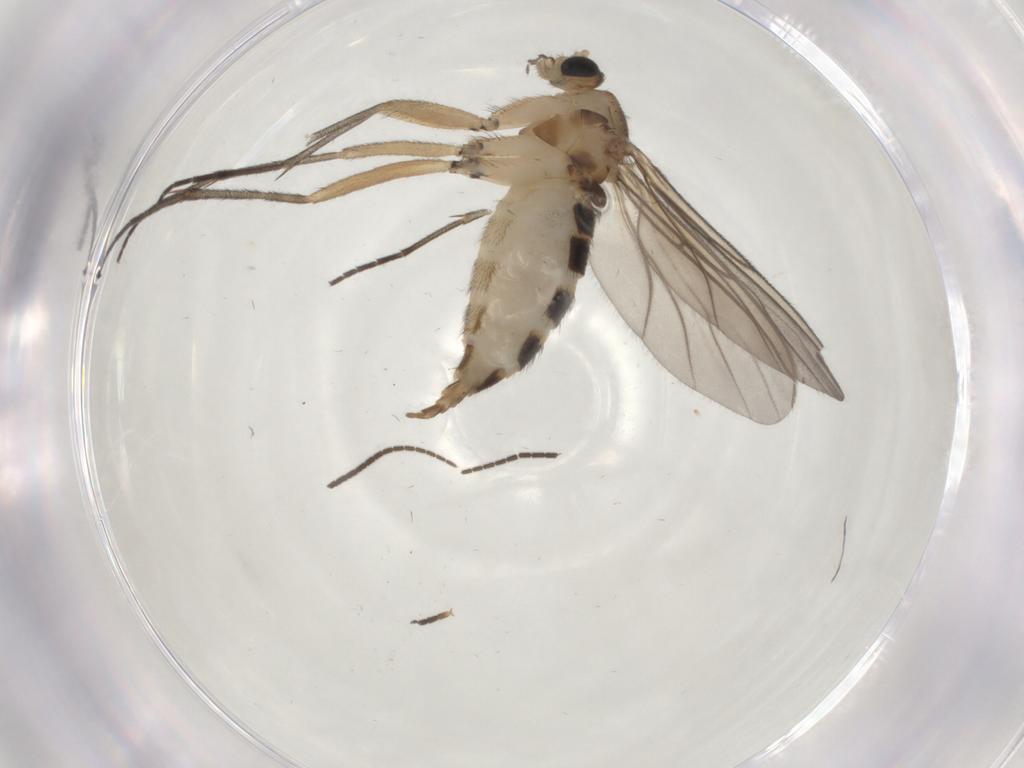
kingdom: Animalia
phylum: Arthropoda
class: Insecta
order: Diptera
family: Sciaridae
